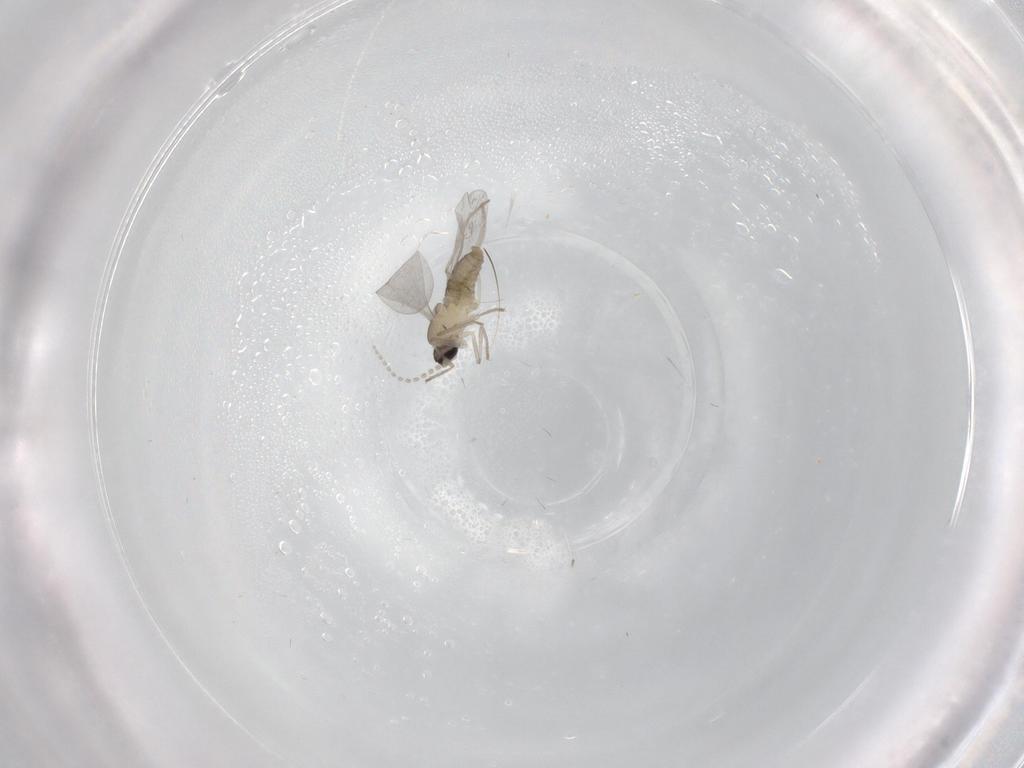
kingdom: Animalia
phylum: Arthropoda
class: Insecta
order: Diptera
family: Cecidomyiidae
